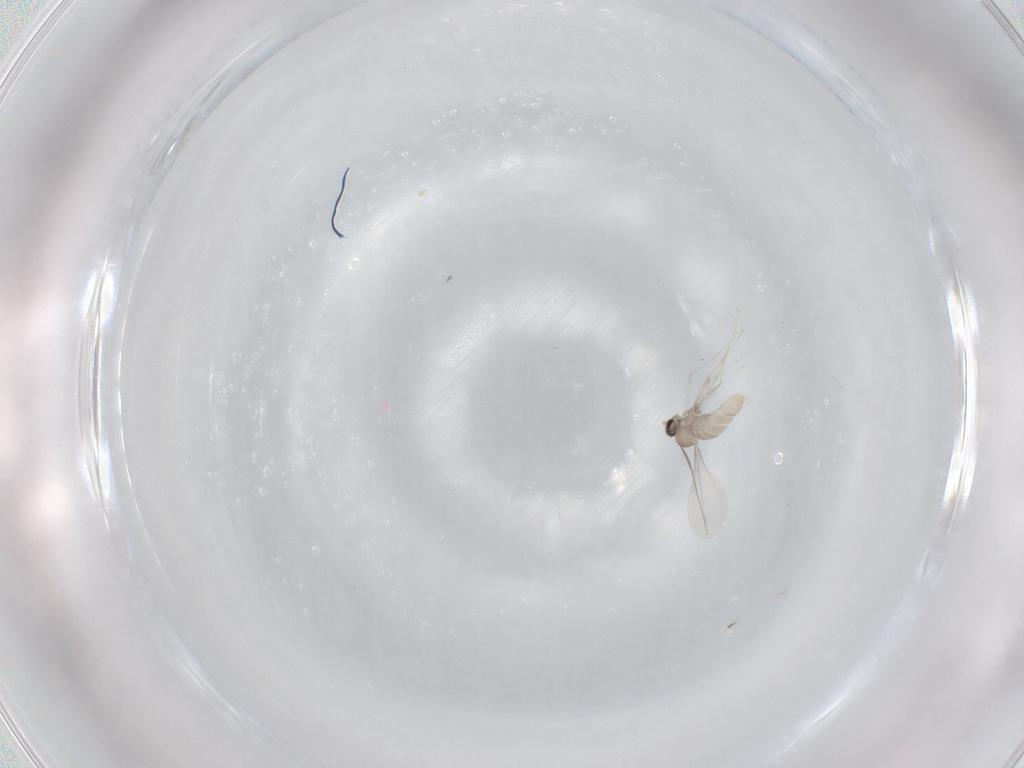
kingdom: Animalia
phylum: Arthropoda
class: Insecta
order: Diptera
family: Cecidomyiidae
